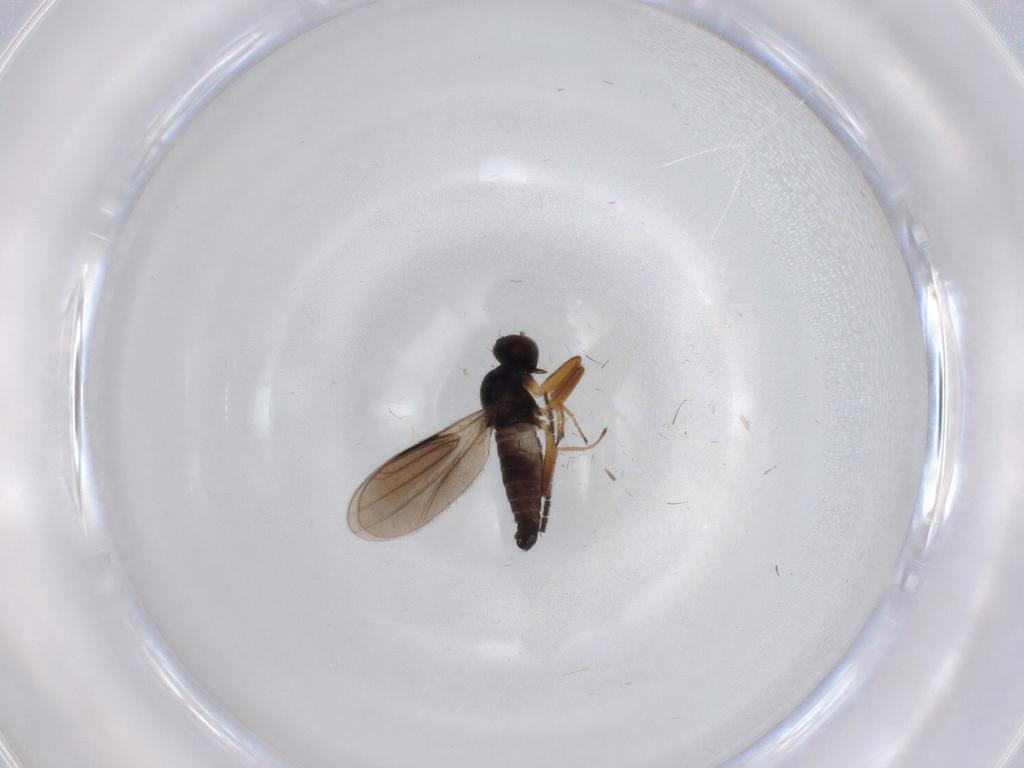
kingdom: Animalia
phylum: Arthropoda
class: Insecta
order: Diptera
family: Hybotidae
